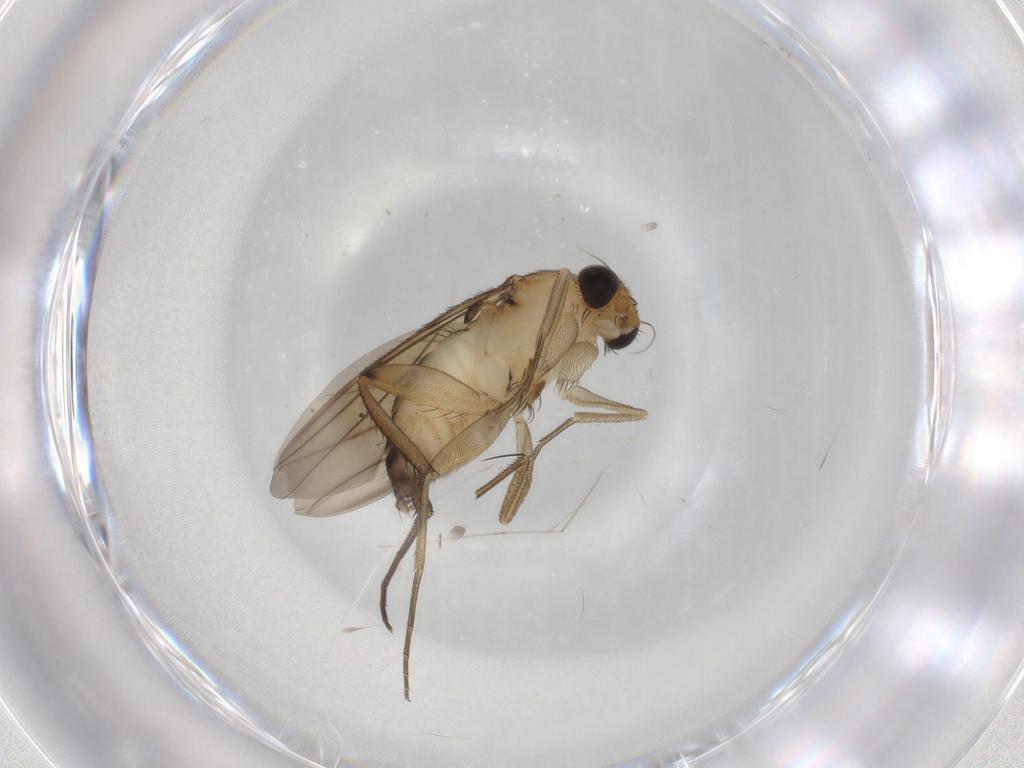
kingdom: Animalia
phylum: Arthropoda
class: Insecta
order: Diptera
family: Phoridae
